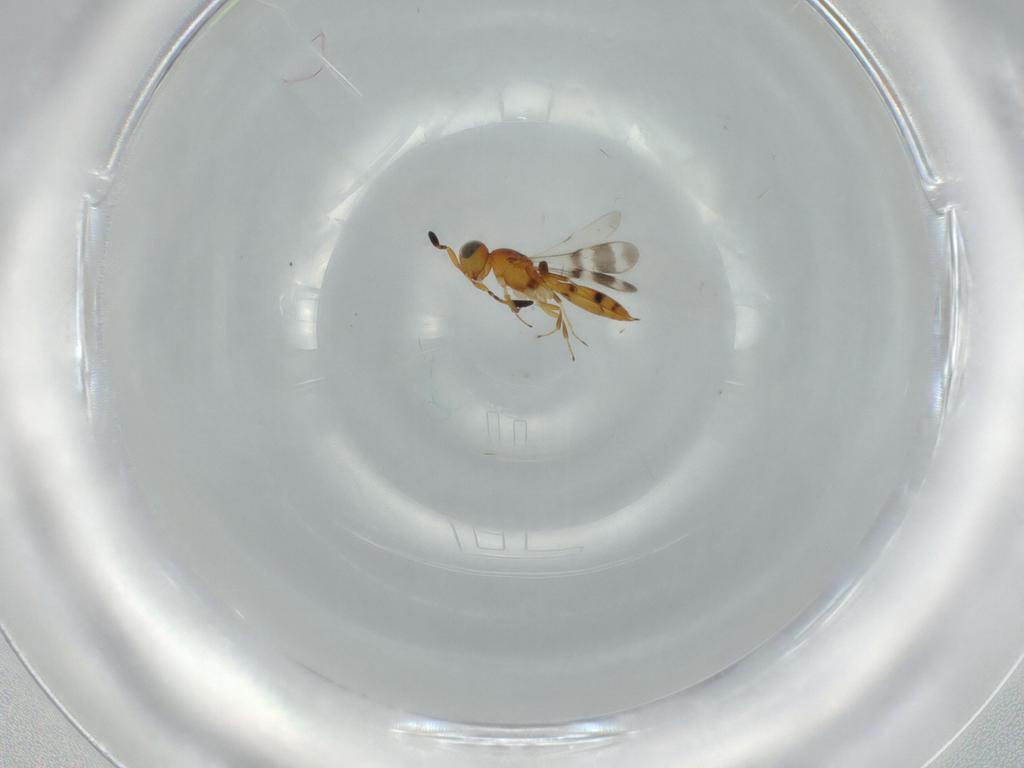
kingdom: Animalia
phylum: Arthropoda
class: Insecta
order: Hymenoptera
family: Scelionidae
